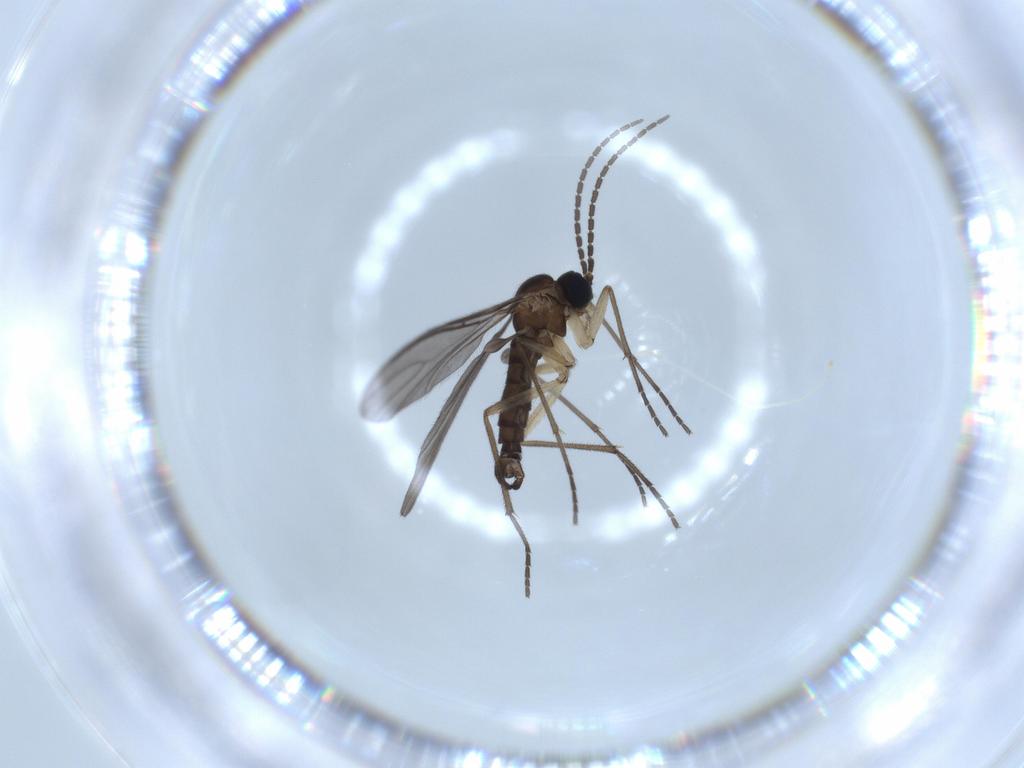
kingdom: Animalia
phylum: Arthropoda
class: Insecta
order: Diptera
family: Sciaridae
